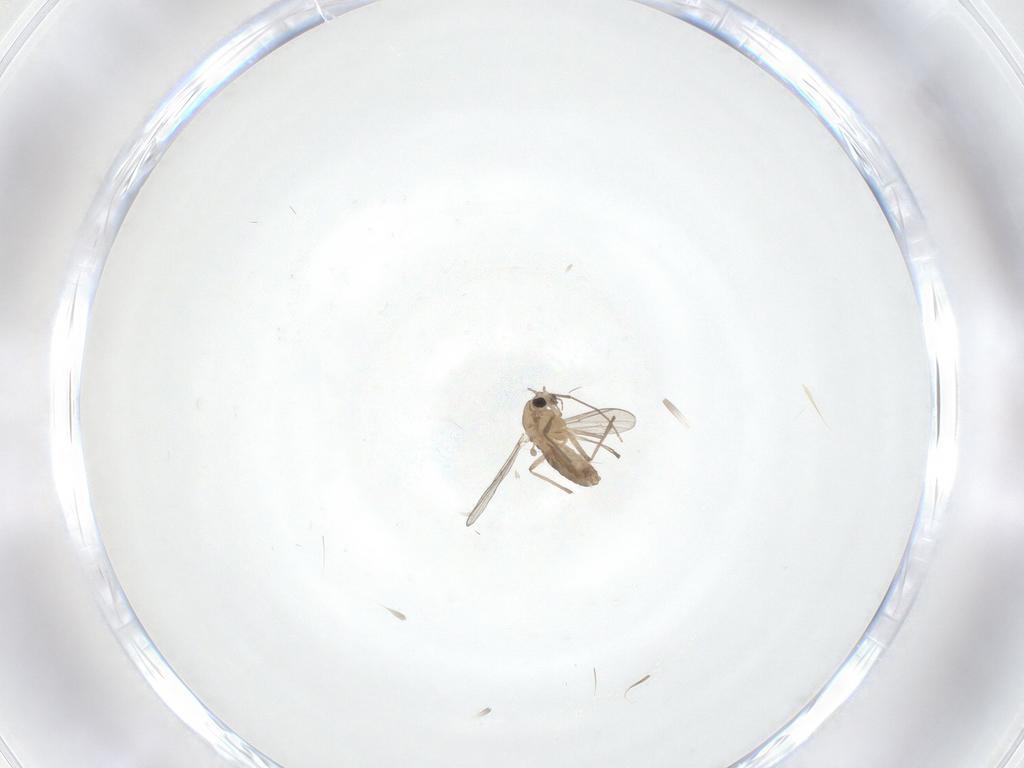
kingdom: Animalia
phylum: Arthropoda
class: Insecta
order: Diptera
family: Chironomidae
